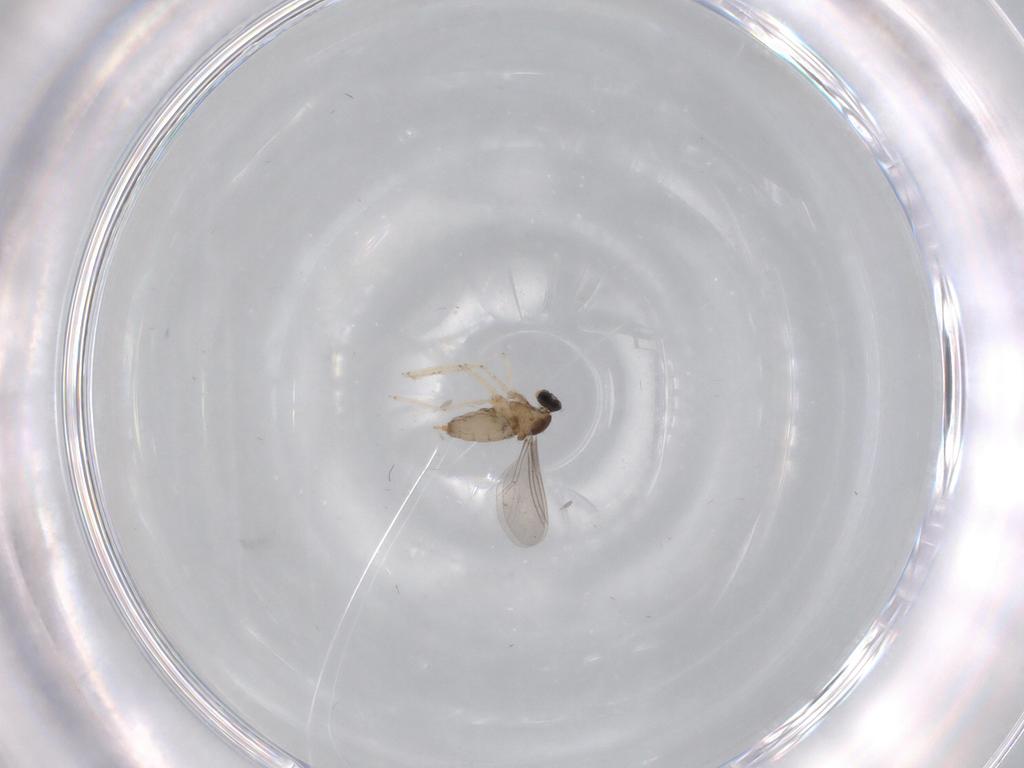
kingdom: Animalia
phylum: Arthropoda
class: Insecta
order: Diptera
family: Cecidomyiidae
